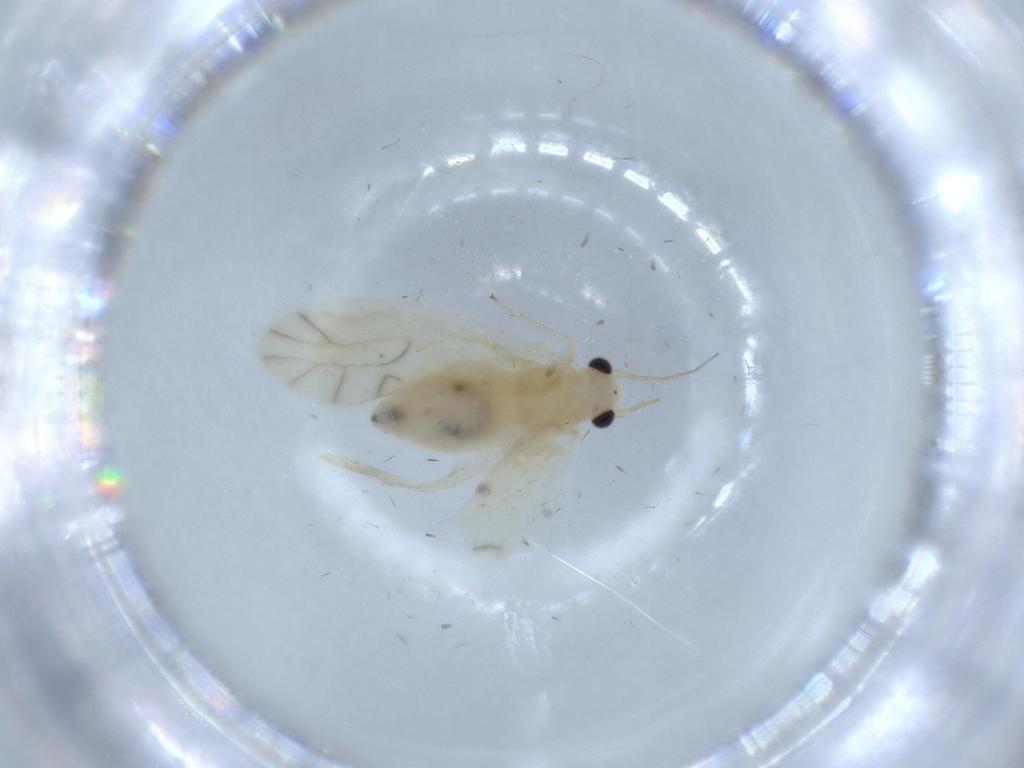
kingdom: Animalia
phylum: Arthropoda
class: Insecta
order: Psocodea
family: Caeciliusidae
